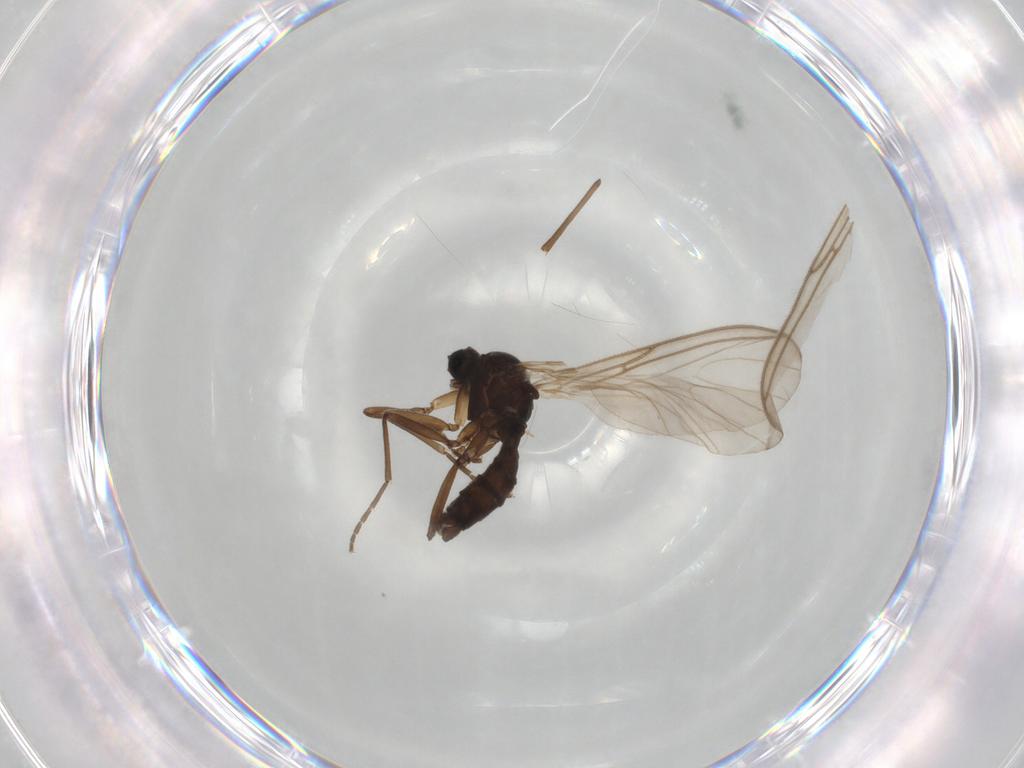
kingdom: Animalia
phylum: Arthropoda
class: Insecta
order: Diptera
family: Sciaridae
